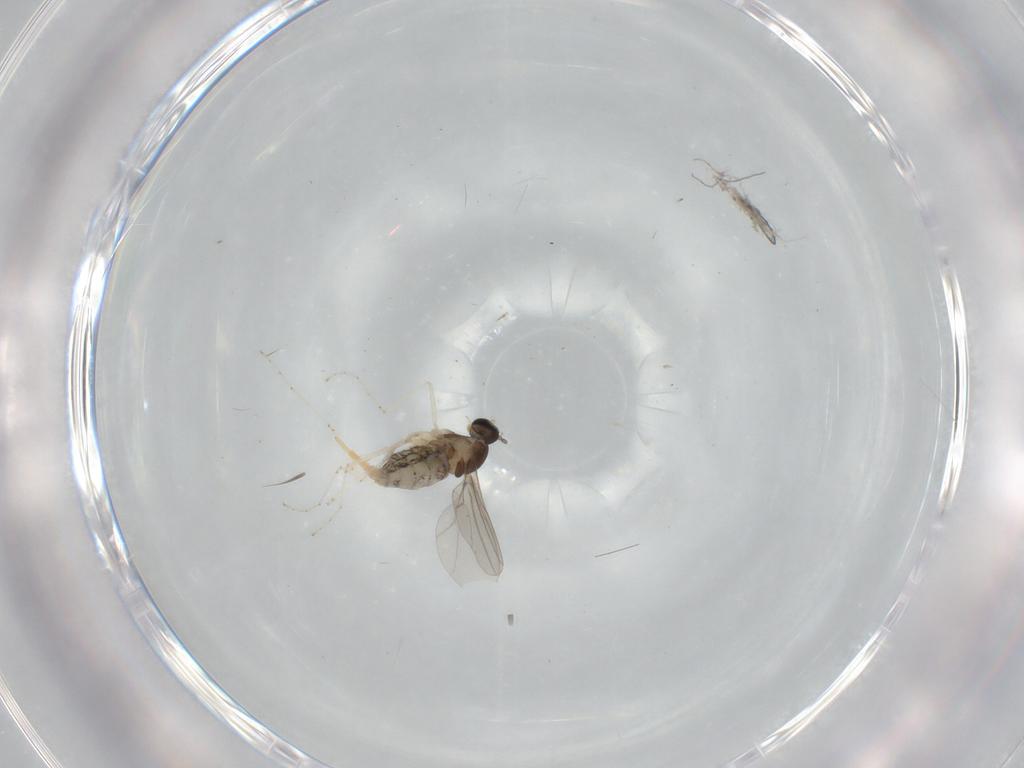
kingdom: Animalia
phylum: Arthropoda
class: Insecta
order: Diptera
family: Cecidomyiidae
